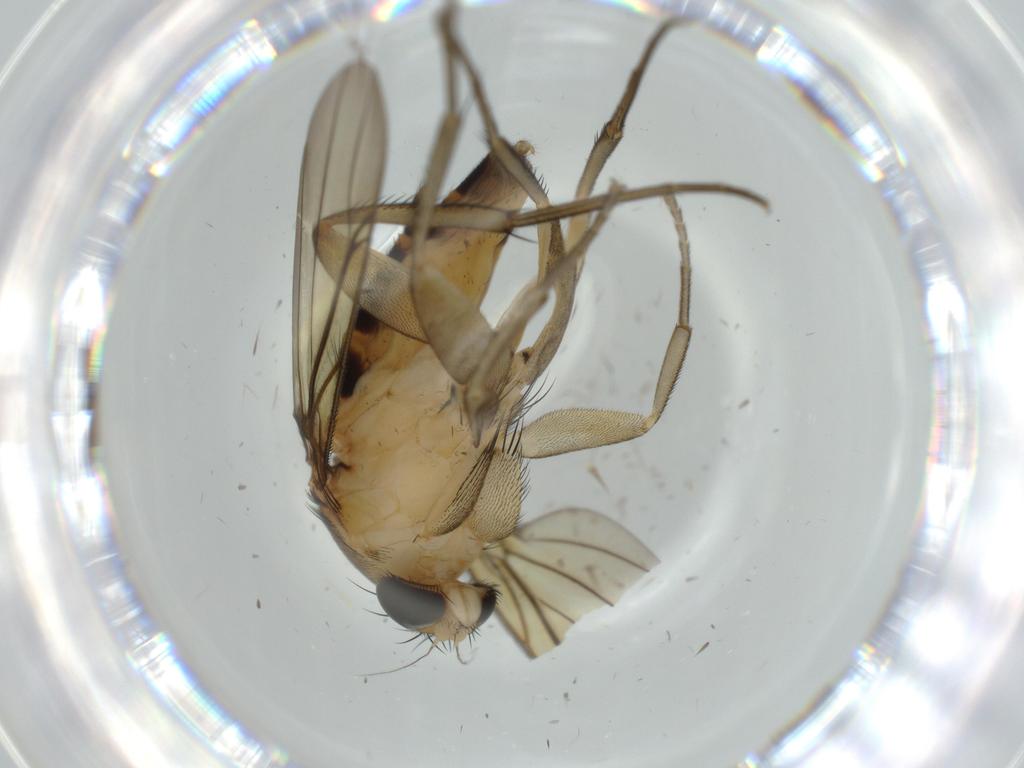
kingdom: Animalia
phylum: Arthropoda
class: Insecta
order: Diptera
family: Phoridae
